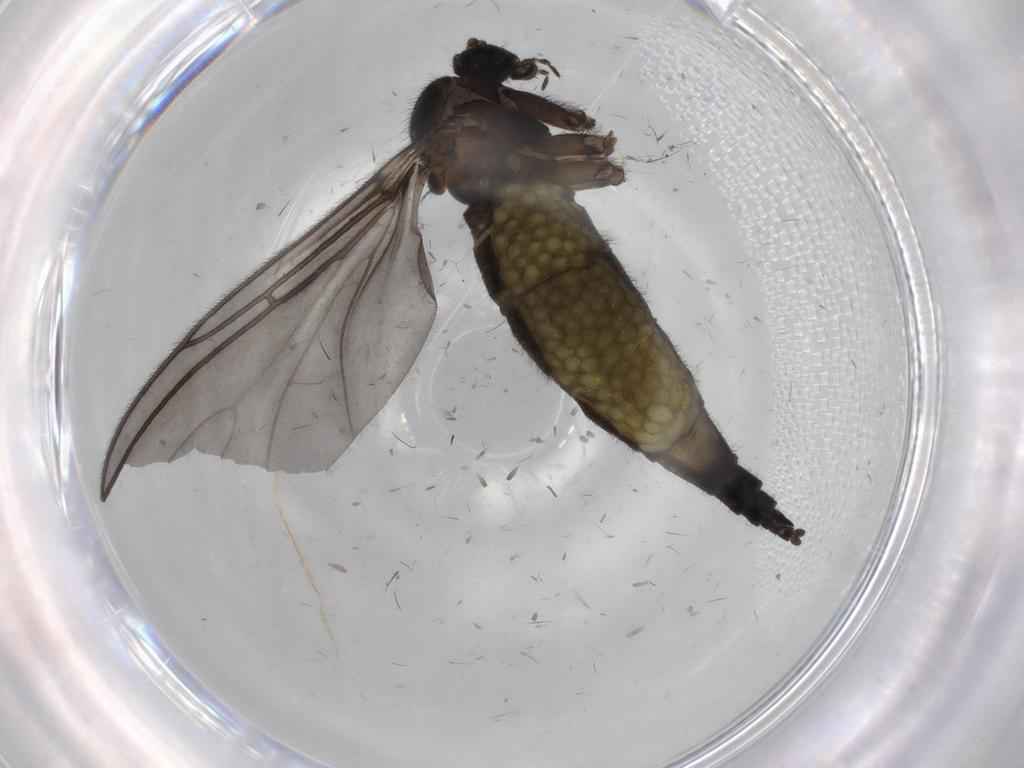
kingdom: Animalia
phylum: Arthropoda
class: Insecta
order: Diptera
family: Sciaridae
